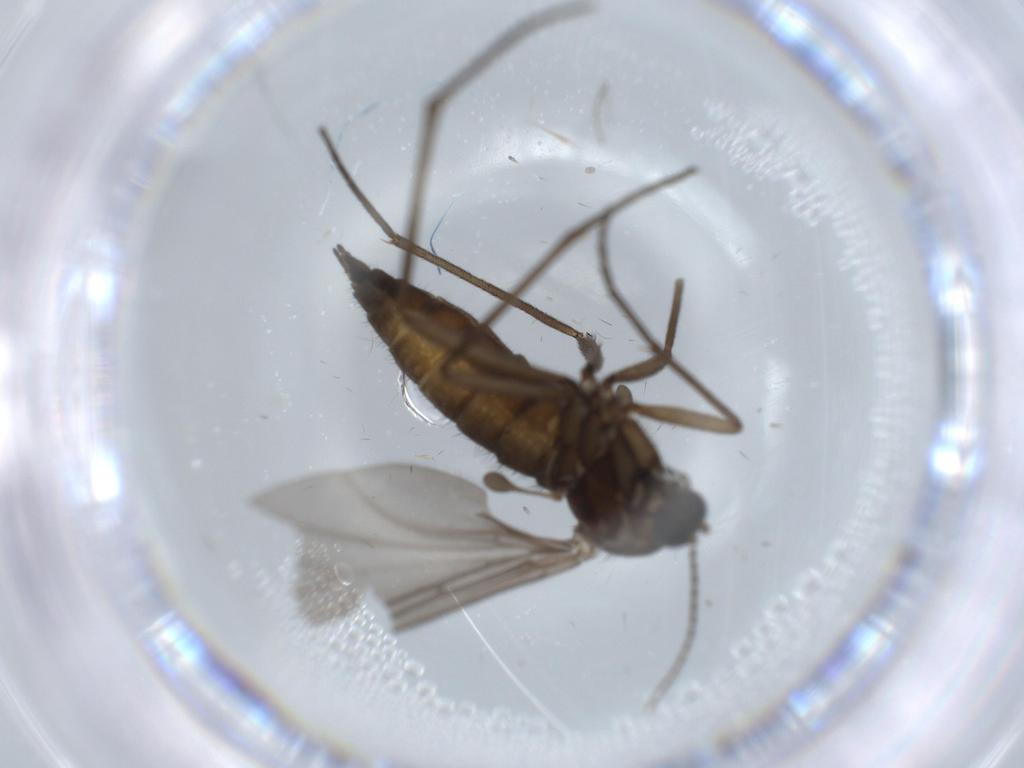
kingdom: Animalia
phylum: Arthropoda
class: Insecta
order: Diptera
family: Sciaridae
